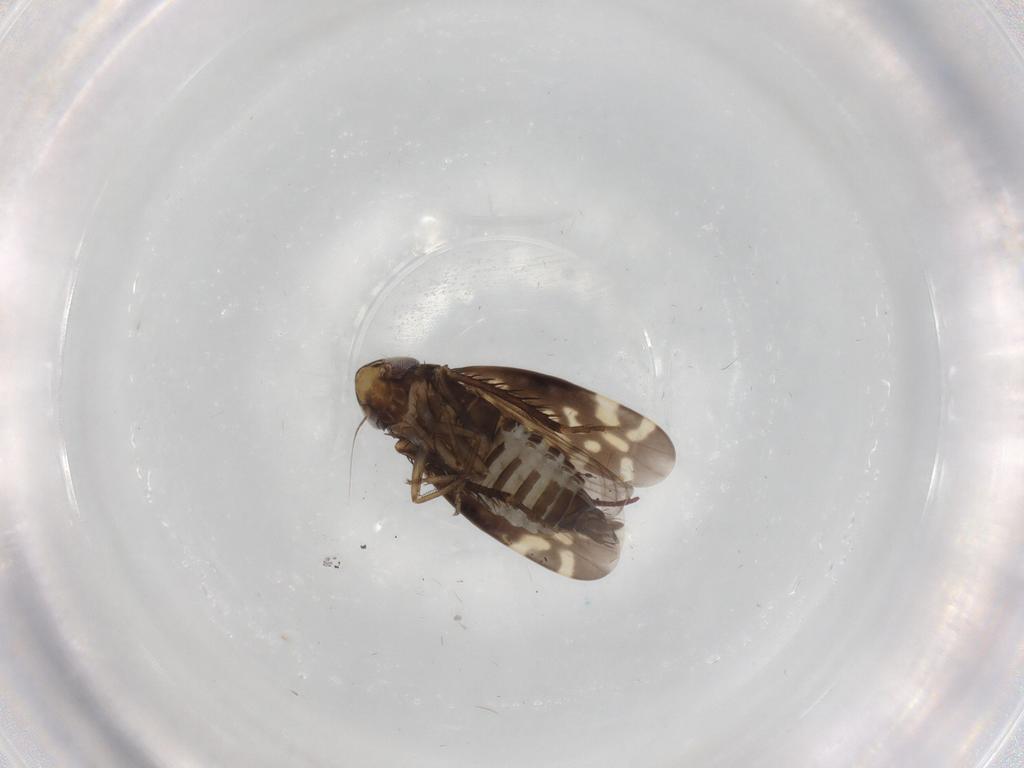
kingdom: Animalia
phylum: Arthropoda
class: Insecta
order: Hemiptera
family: Cicadellidae
